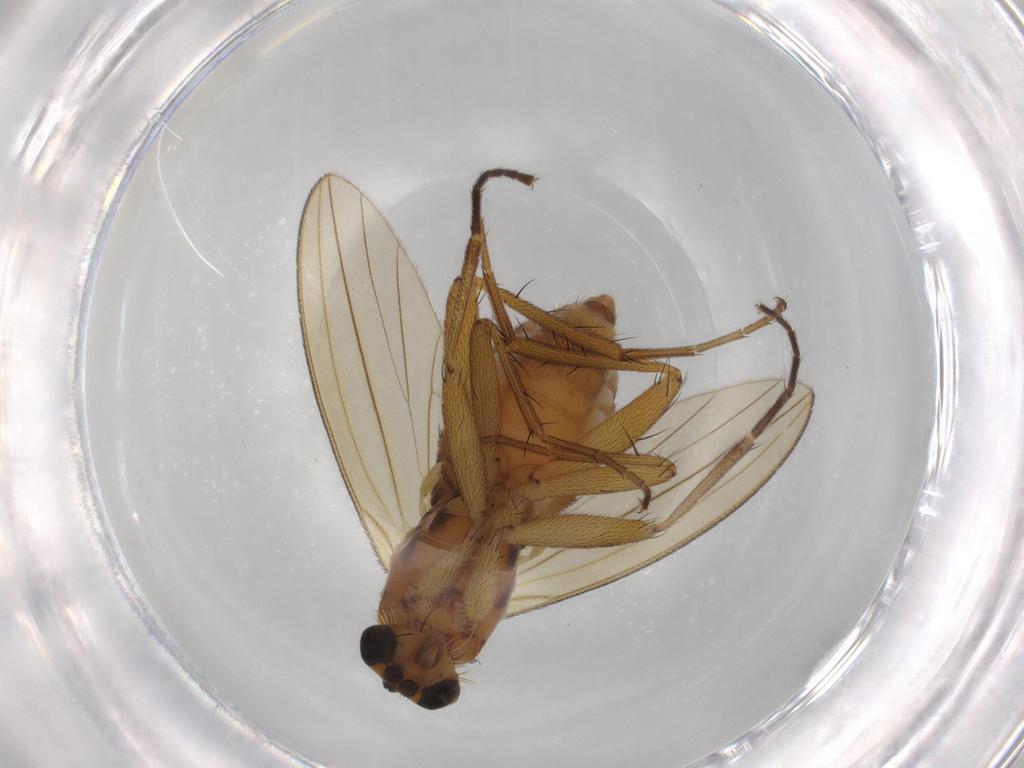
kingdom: Animalia
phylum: Arthropoda
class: Insecta
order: Diptera
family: Lonchopteridae
